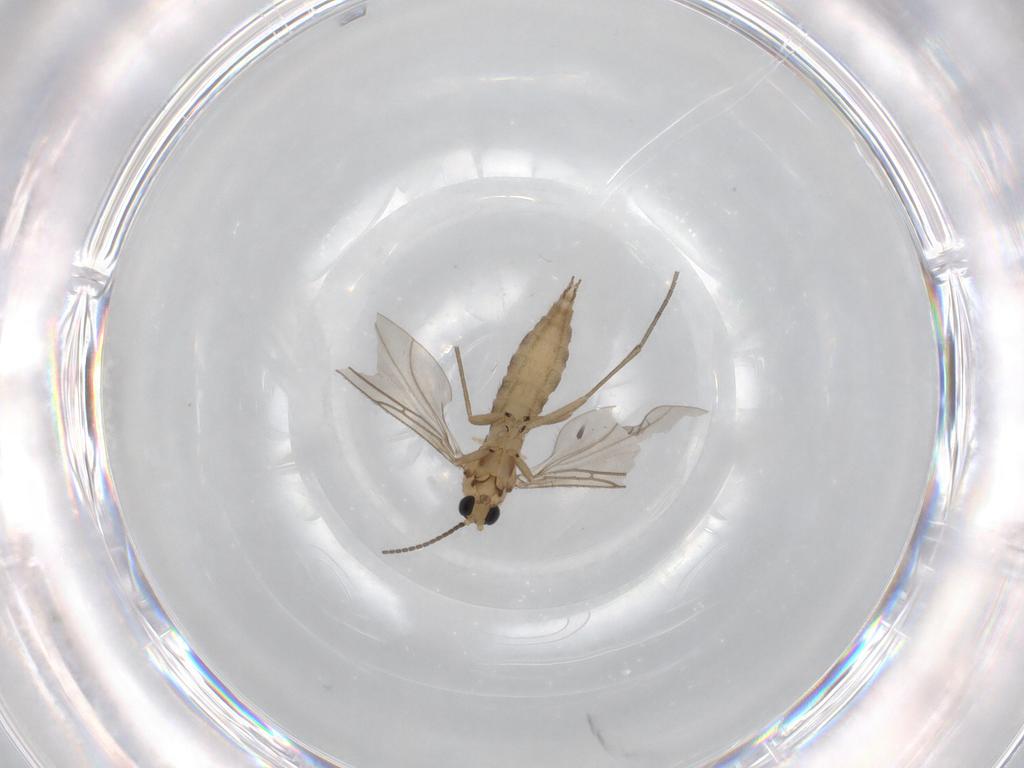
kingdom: Animalia
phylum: Arthropoda
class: Insecta
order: Diptera
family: Sciaridae
